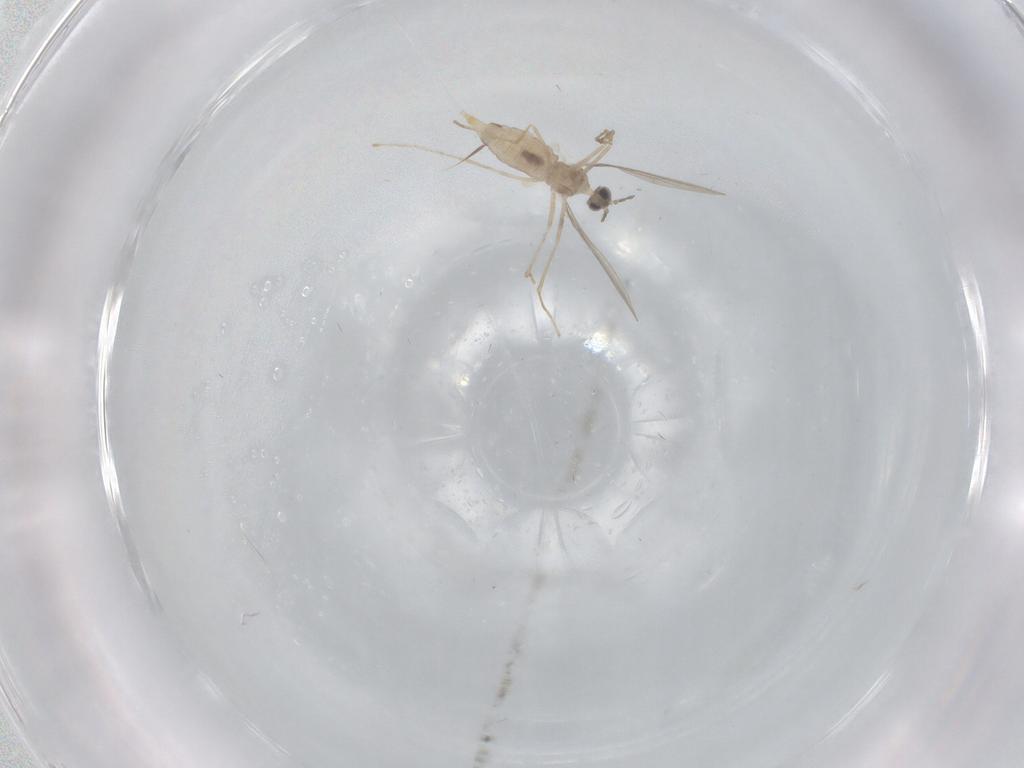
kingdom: Animalia
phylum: Arthropoda
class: Insecta
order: Diptera
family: Cecidomyiidae
